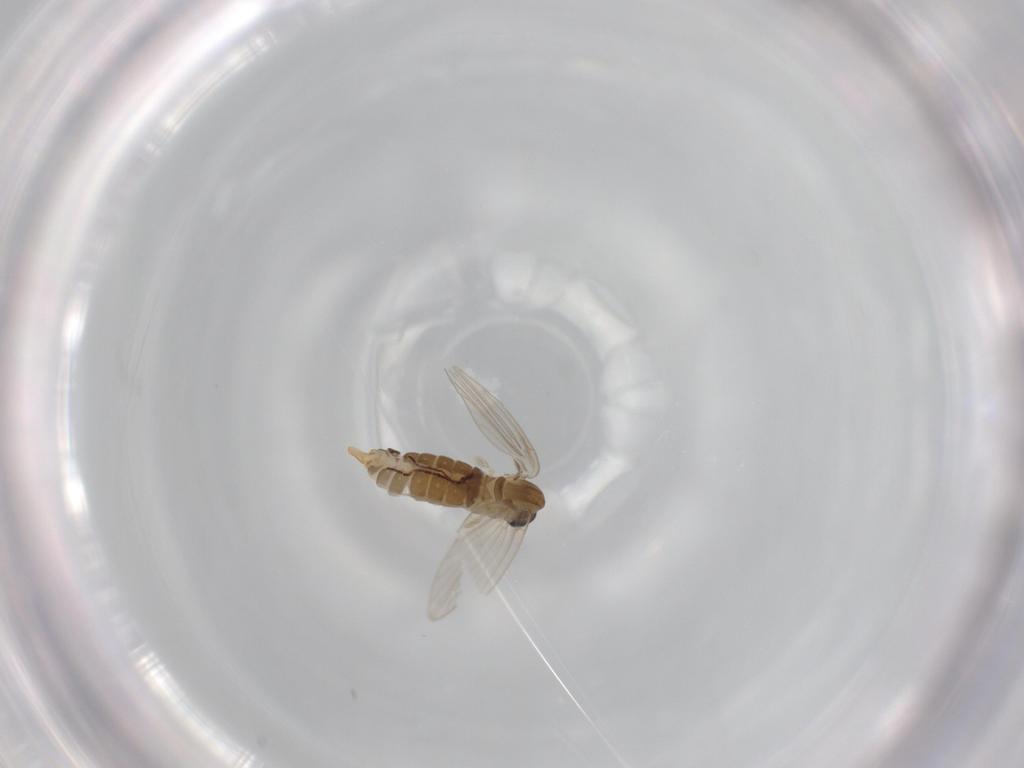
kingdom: Animalia
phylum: Arthropoda
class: Insecta
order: Diptera
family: Psychodidae
